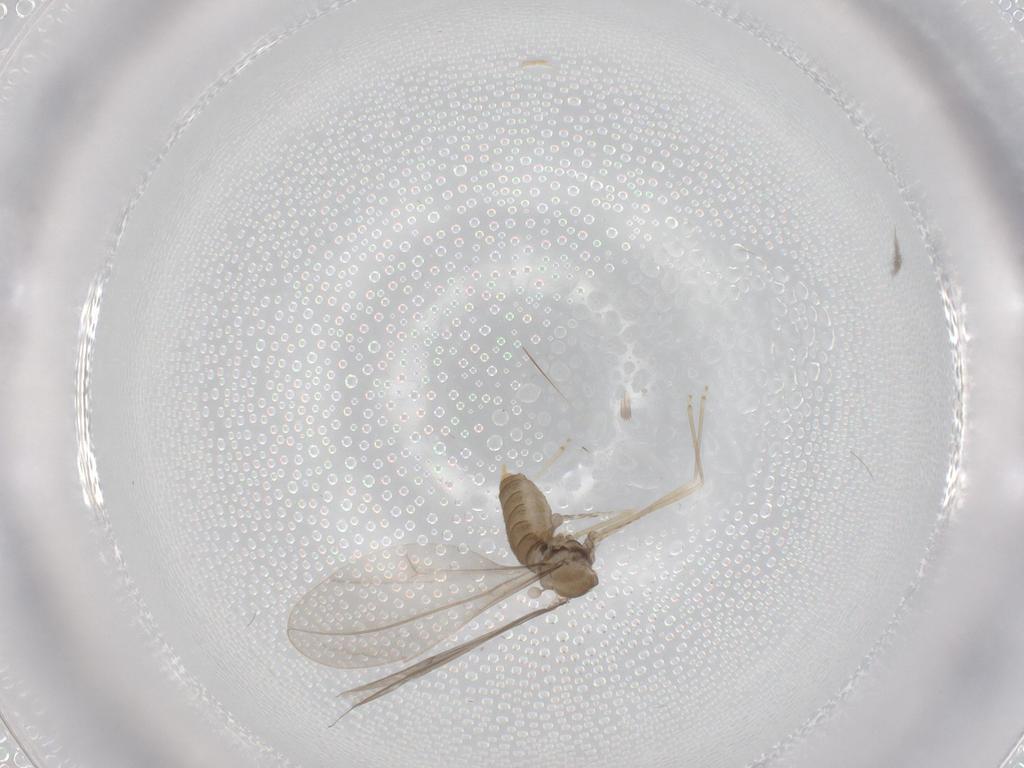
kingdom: Animalia
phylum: Arthropoda
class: Insecta
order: Diptera
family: Cecidomyiidae
